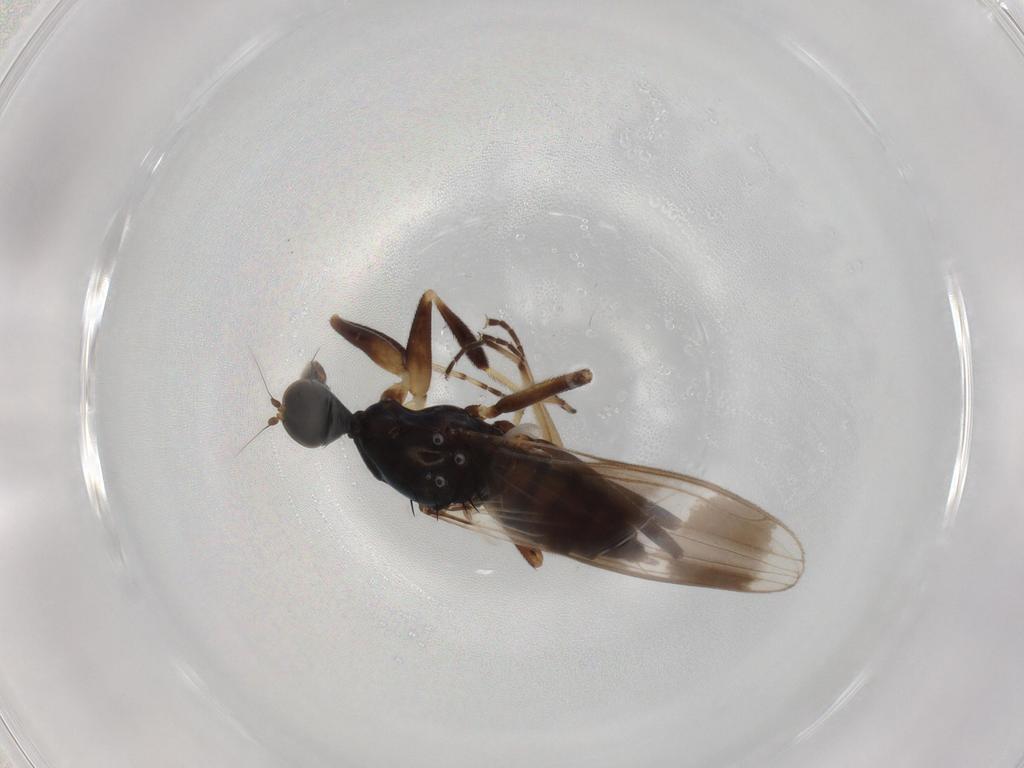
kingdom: Animalia
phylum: Arthropoda
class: Insecta
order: Diptera
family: Hybotidae
